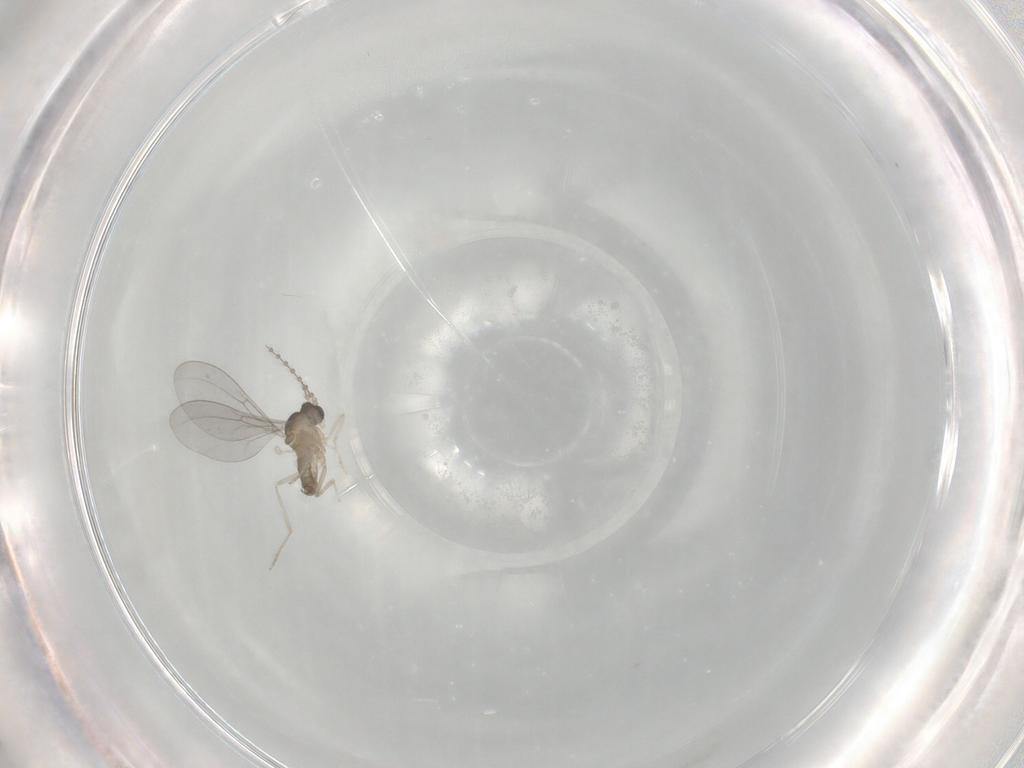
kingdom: Animalia
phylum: Arthropoda
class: Insecta
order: Diptera
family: Cecidomyiidae
